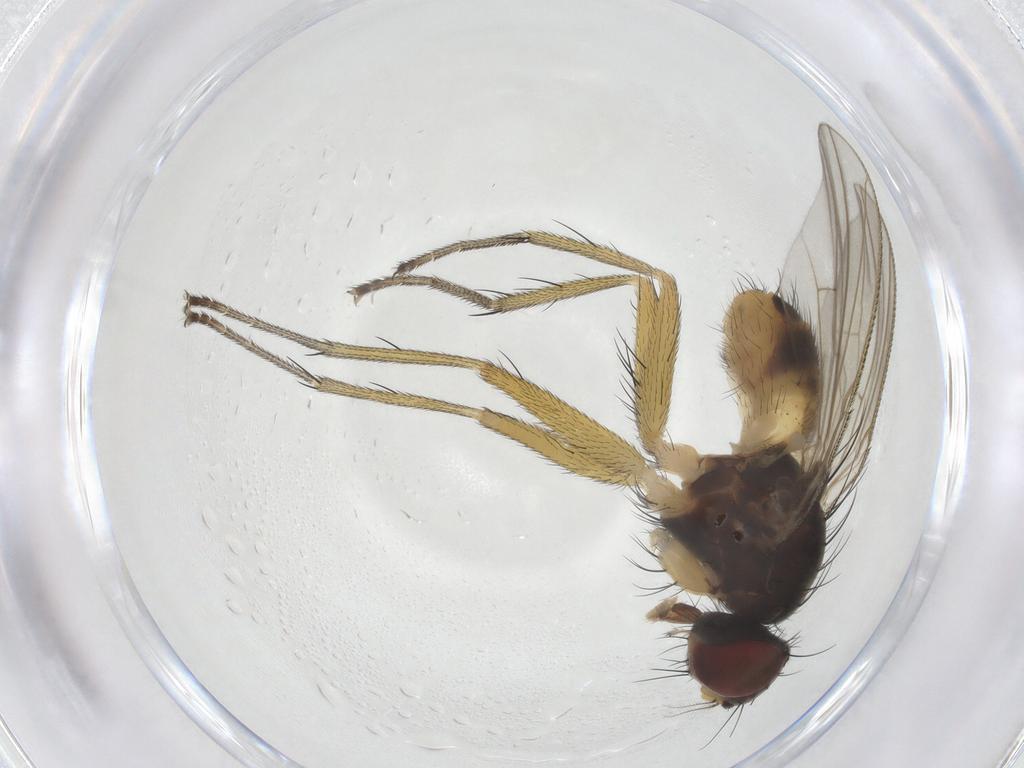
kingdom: Animalia
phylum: Arthropoda
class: Insecta
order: Diptera
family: Muscidae
